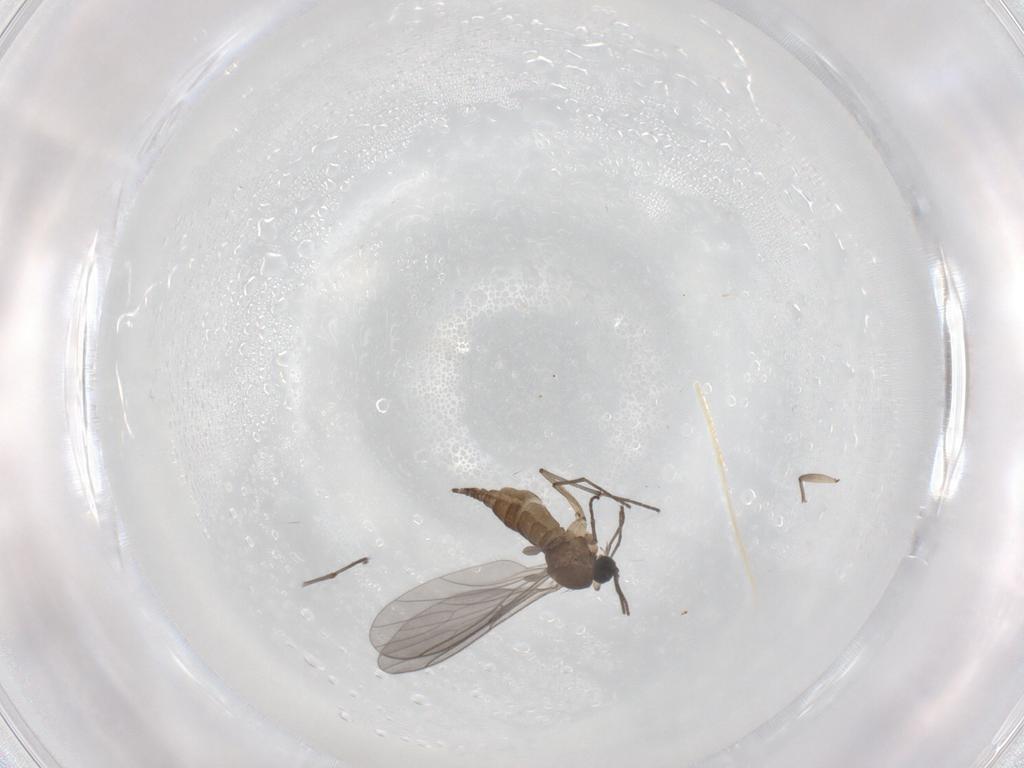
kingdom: Animalia
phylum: Arthropoda
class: Insecta
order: Diptera
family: Sciaridae
